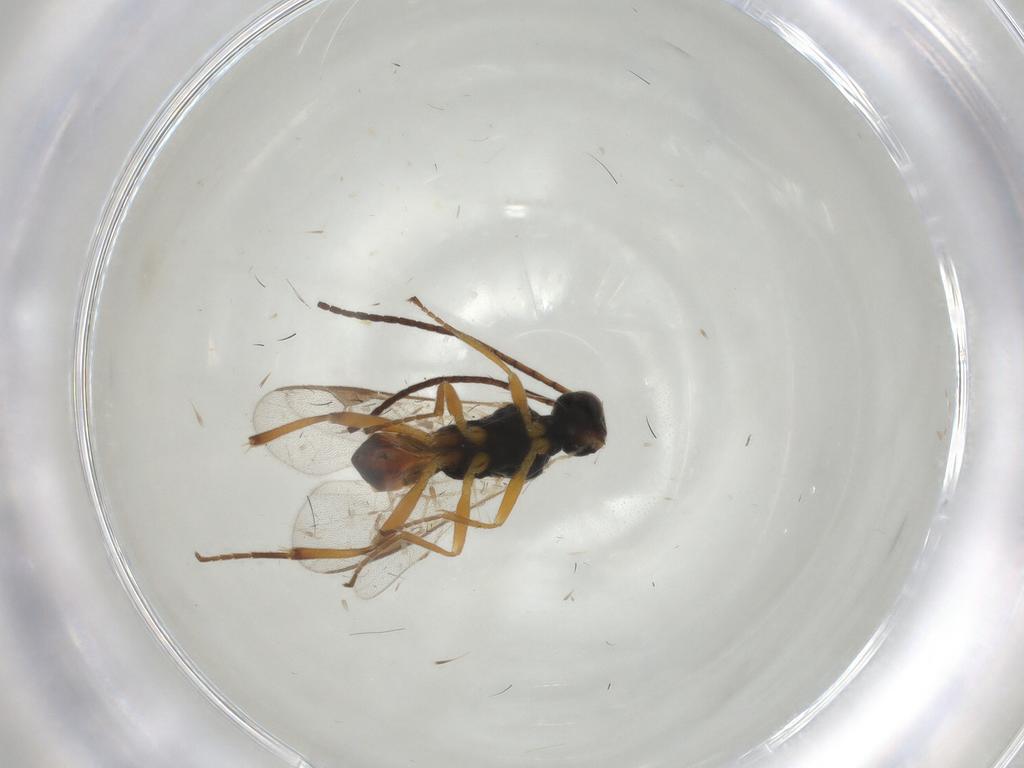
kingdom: Animalia
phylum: Arthropoda
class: Insecta
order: Hymenoptera
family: Braconidae
